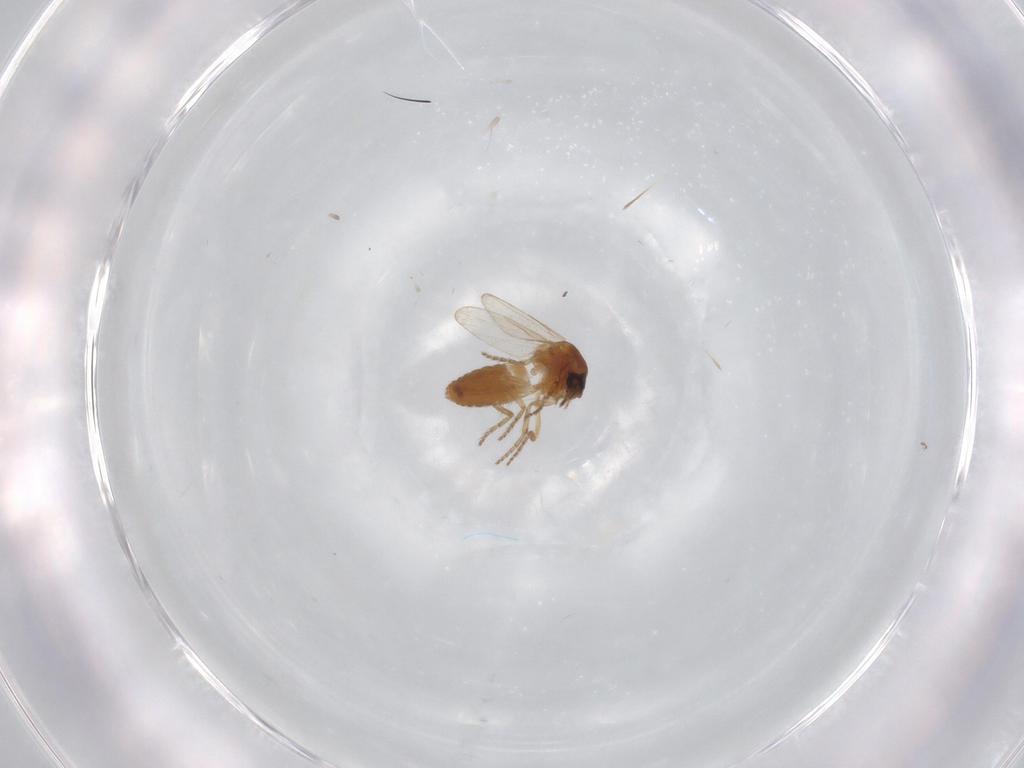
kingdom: Animalia
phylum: Arthropoda
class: Insecta
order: Diptera
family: Ceratopogonidae
